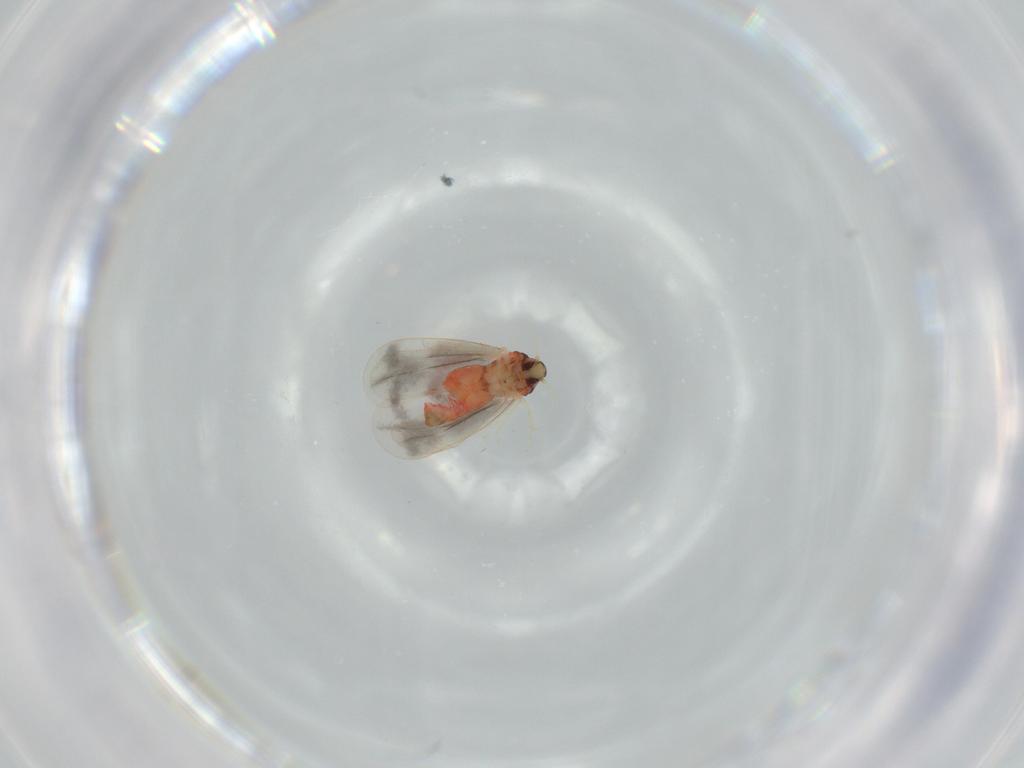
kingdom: Animalia
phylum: Arthropoda
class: Insecta
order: Hemiptera
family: Aleyrodidae
